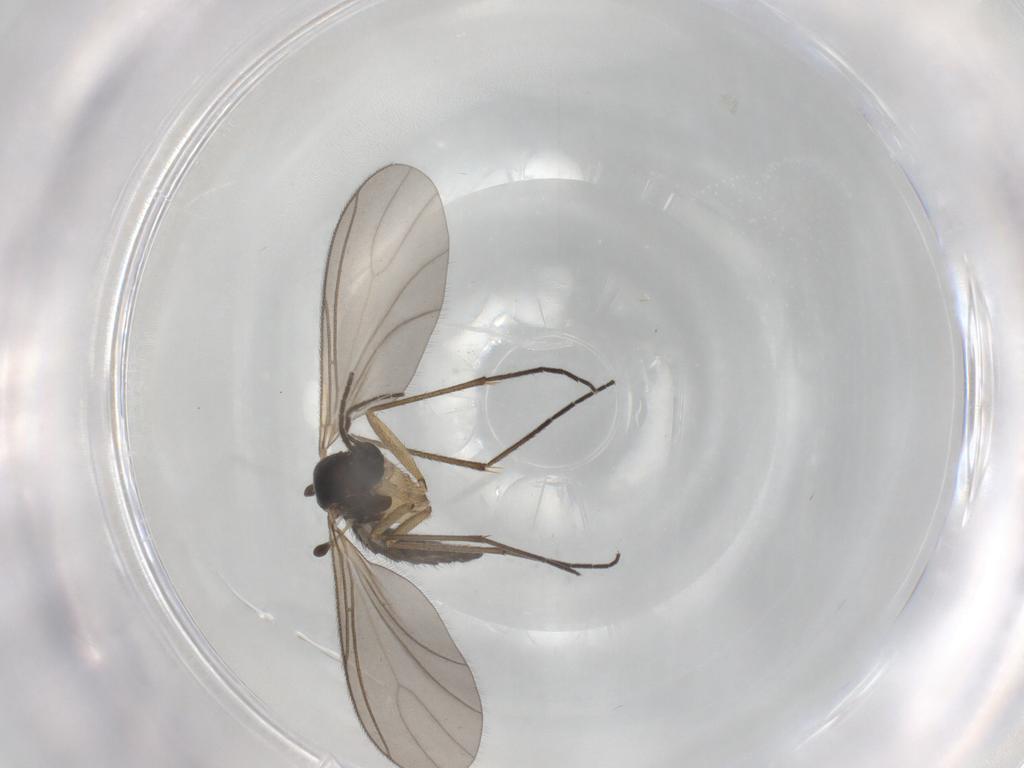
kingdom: Animalia
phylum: Arthropoda
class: Insecta
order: Diptera
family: Sciaridae
